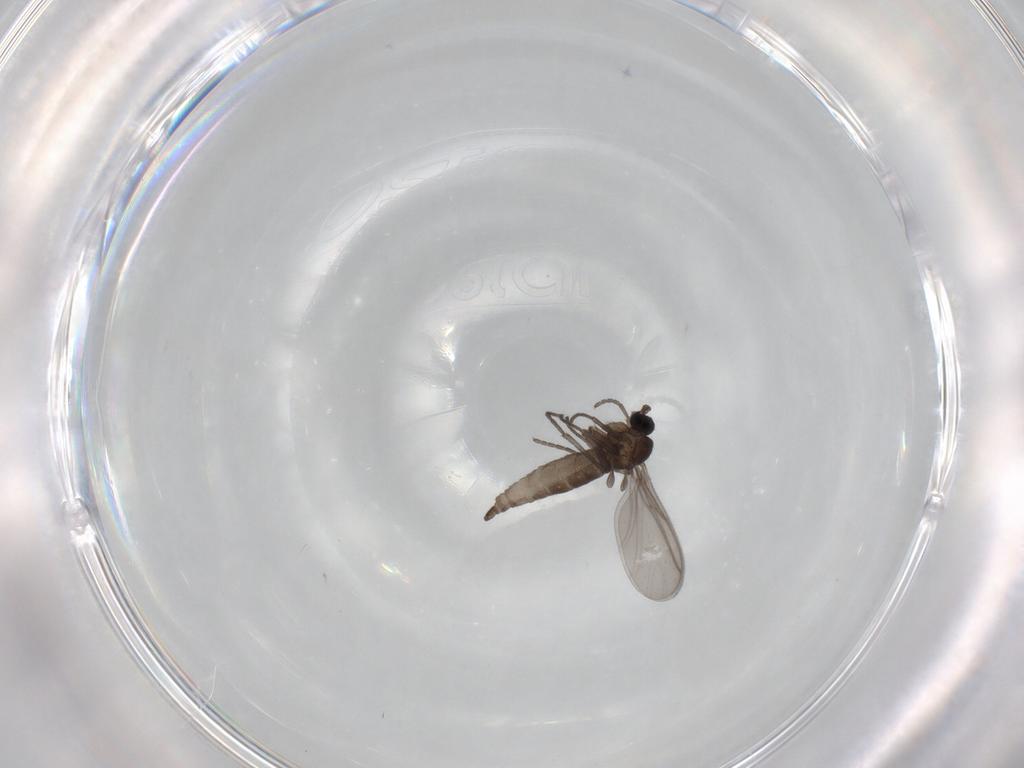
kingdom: Animalia
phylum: Arthropoda
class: Insecta
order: Diptera
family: Sciaridae
